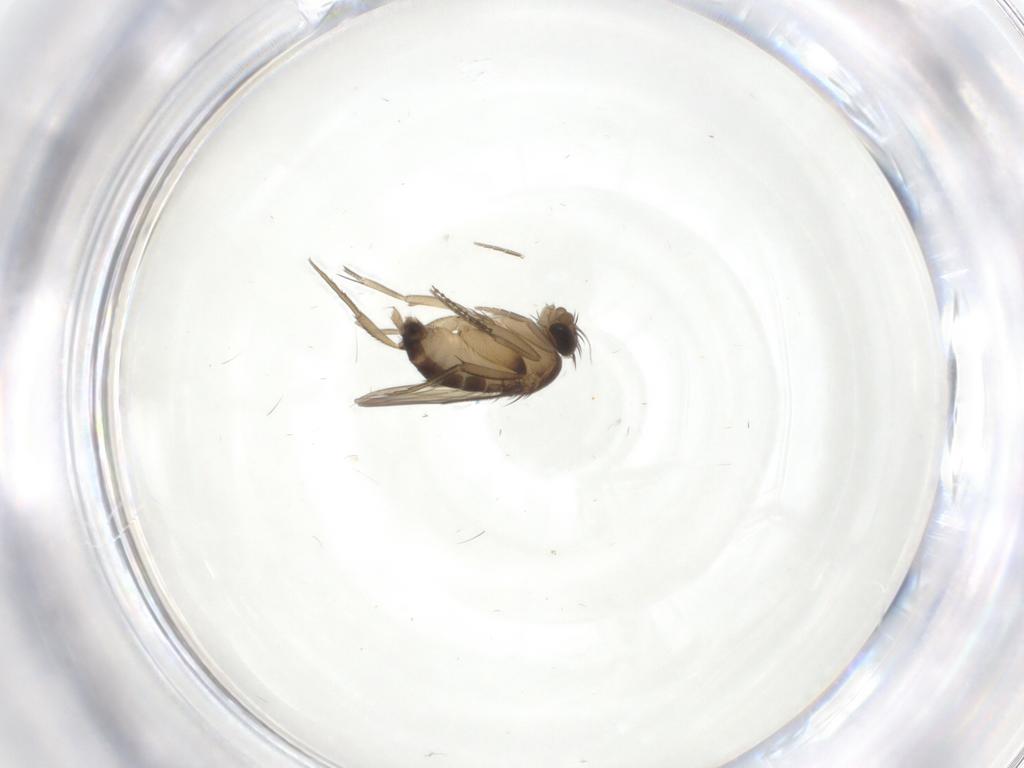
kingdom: Animalia
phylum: Arthropoda
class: Insecta
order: Diptera
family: Phoridae
